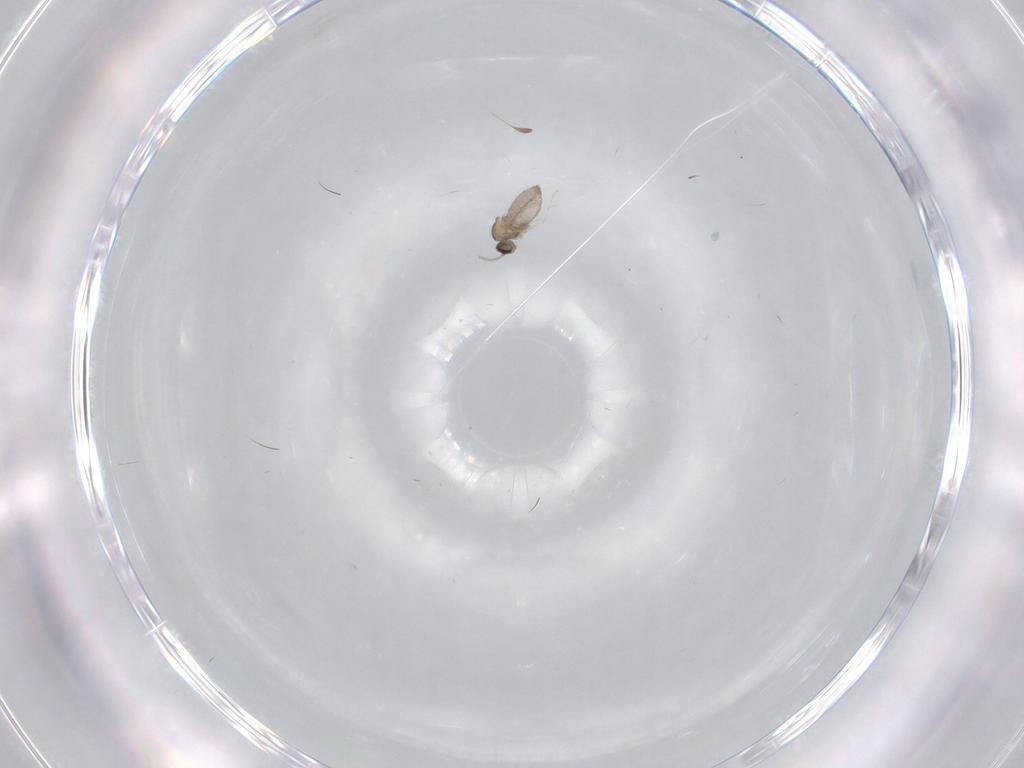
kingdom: Animalia
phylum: Arthropoda
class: Insecta
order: Diptera
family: Cecidomyiidae
